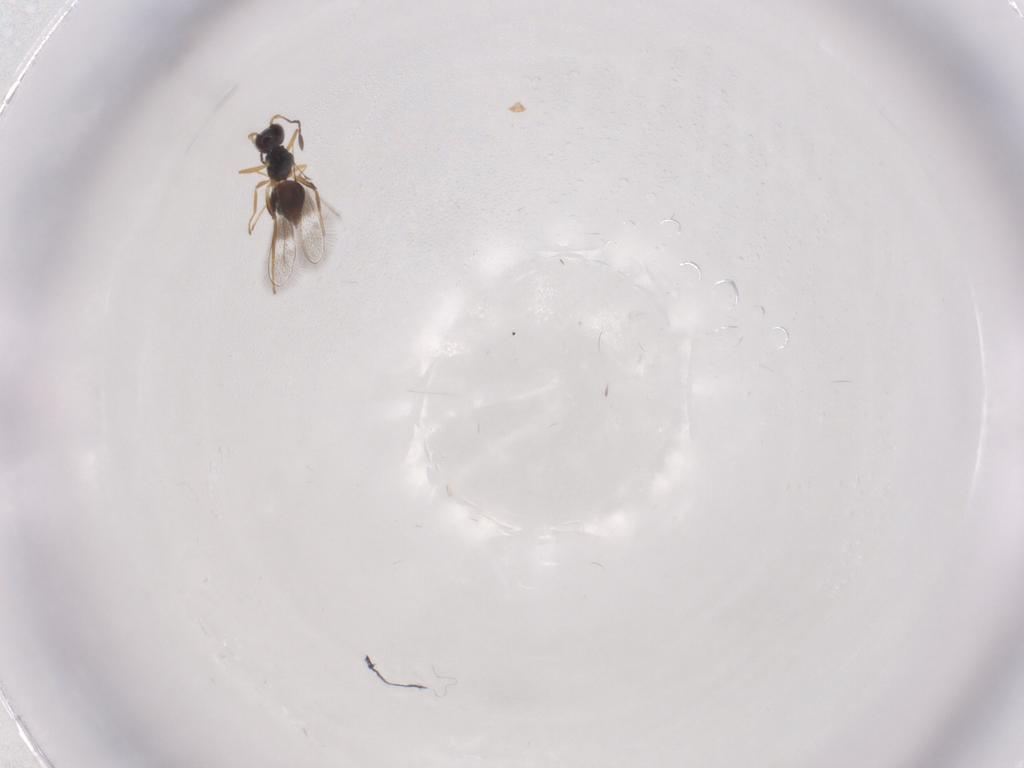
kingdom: Animalia
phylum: Arthropoda
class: Insecta
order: Hymenoptera
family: Mymaridae
